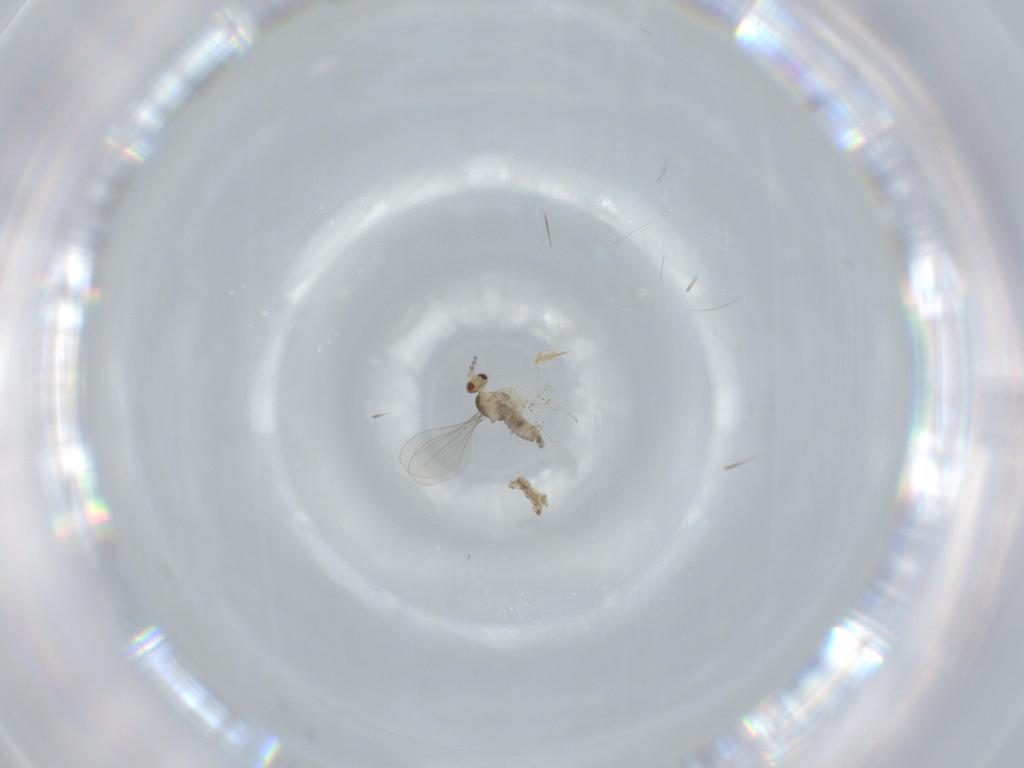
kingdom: Animalia
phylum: Arthropoda
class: Insecta
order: Diptera
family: Cecidomyiidae
